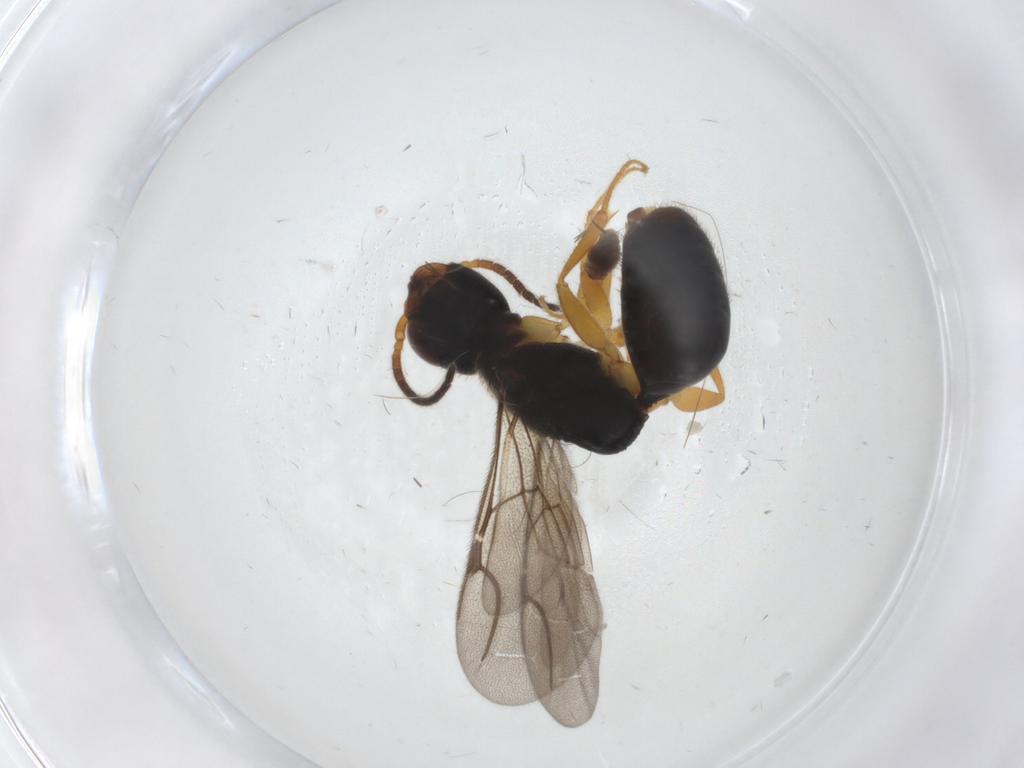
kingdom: Animalia
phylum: Arthropoda
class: Insecta
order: Hymenoptera
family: Bethylidae
